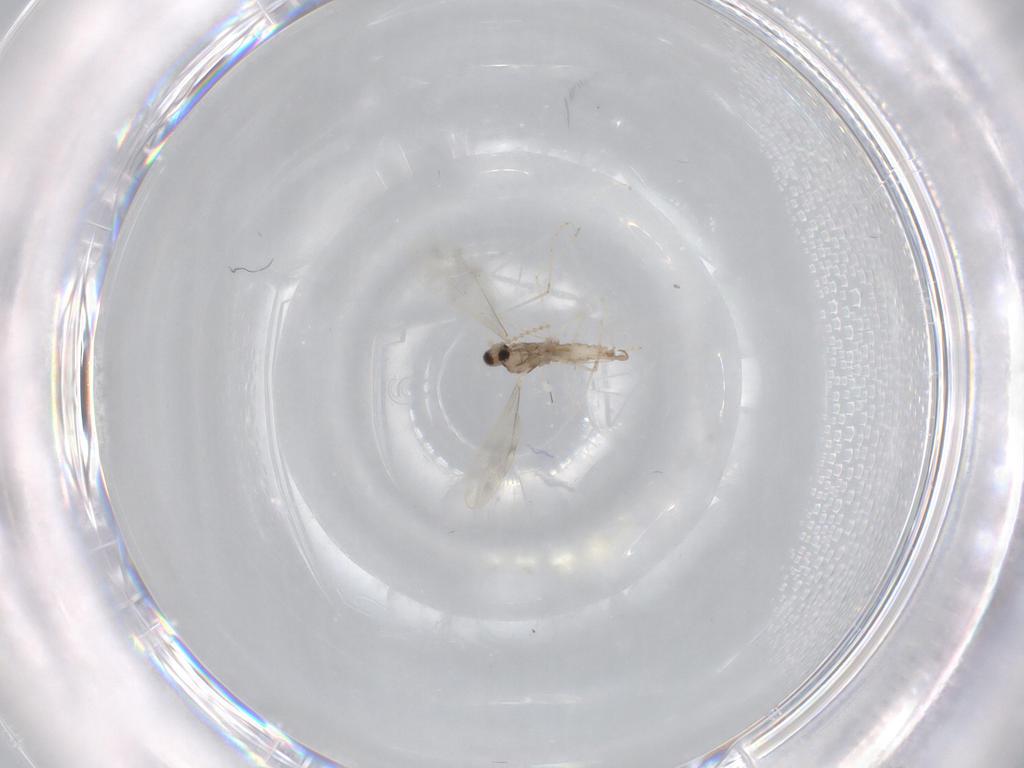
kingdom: Animalia
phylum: Arthropoda
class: Insecta
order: Diptera
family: Cecidomyiidae
